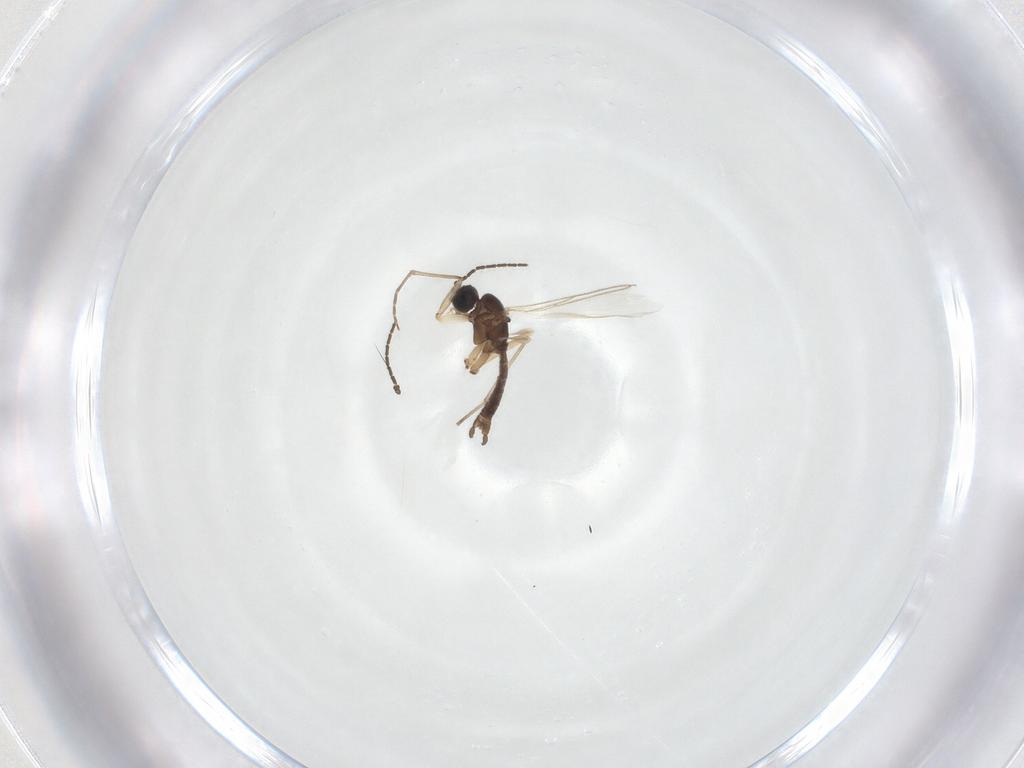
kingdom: Animalia
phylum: Arthropoda
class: Insecta
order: Diptera
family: Sciaridae
